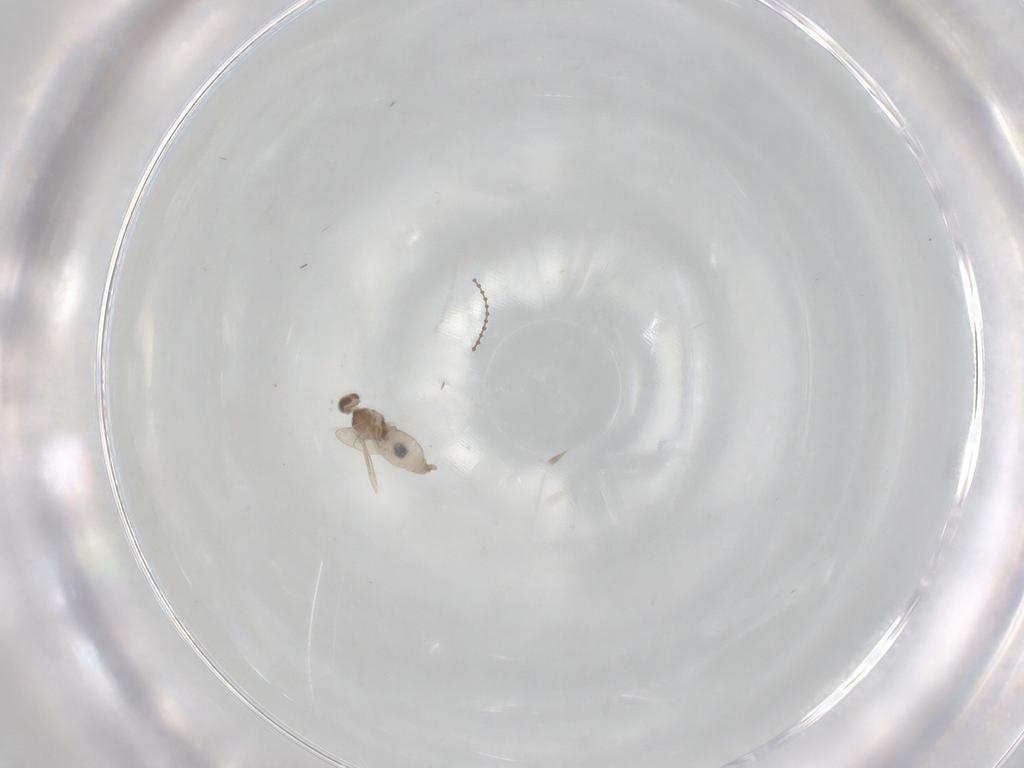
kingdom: Animalia
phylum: Arthropoda
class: Insecta
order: Diptera
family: Cecidomyiidae
